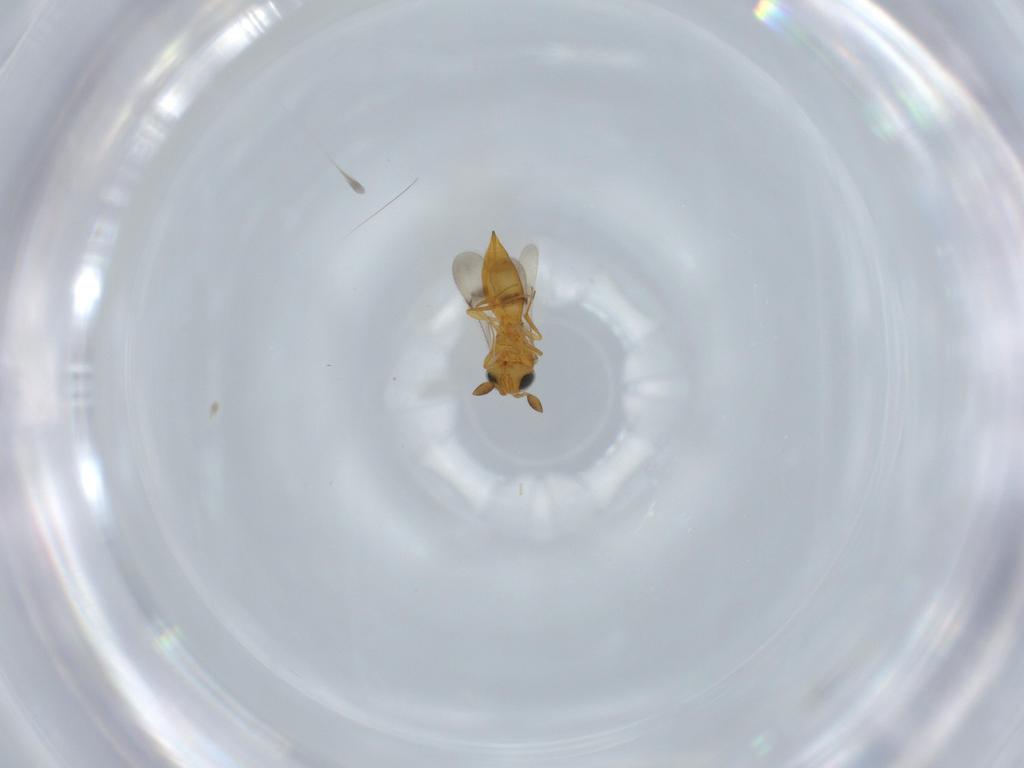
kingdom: Animalia
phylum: Arthropoda
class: Insecta
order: Hymenoptera
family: Scelionidae
